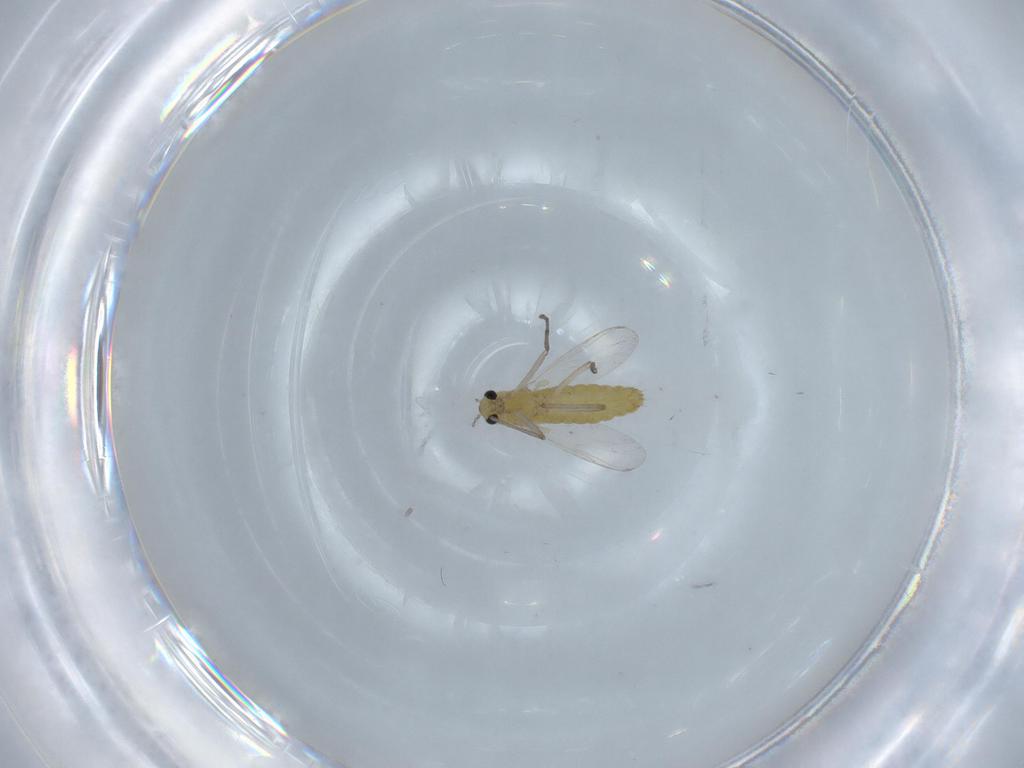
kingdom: Animalia
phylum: Arthropoda
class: Insecta
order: Diptera
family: Chironomidae
